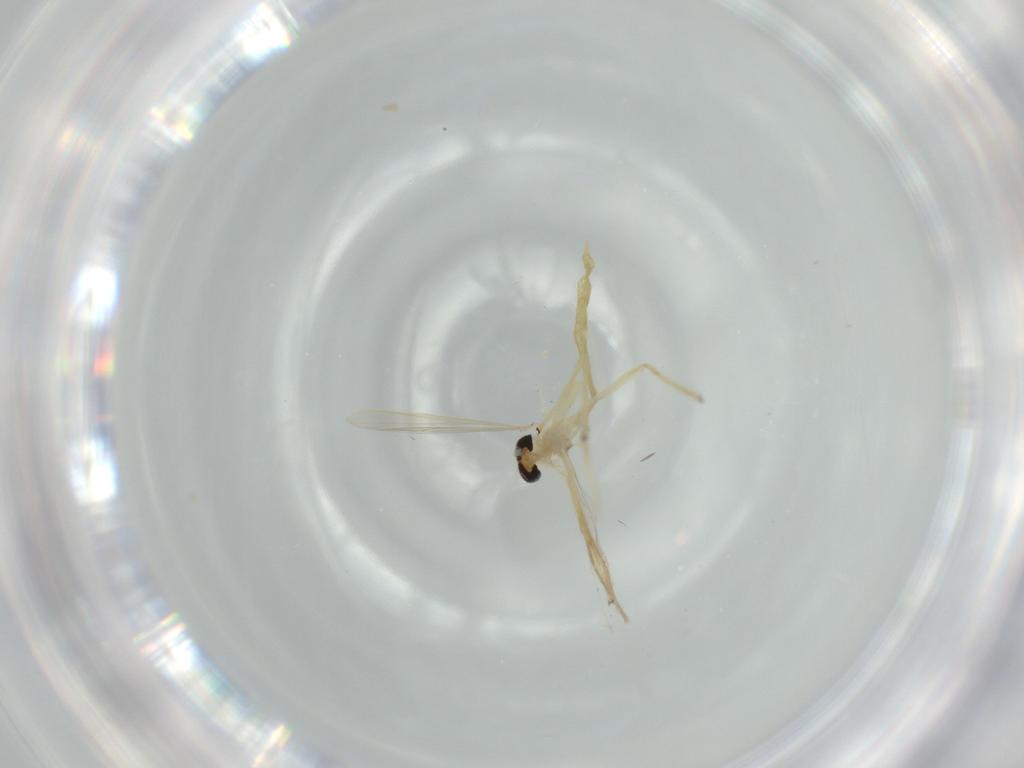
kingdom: Animalia
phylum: Arthropoda
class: Insecta
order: Diptera
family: Chironomidae
